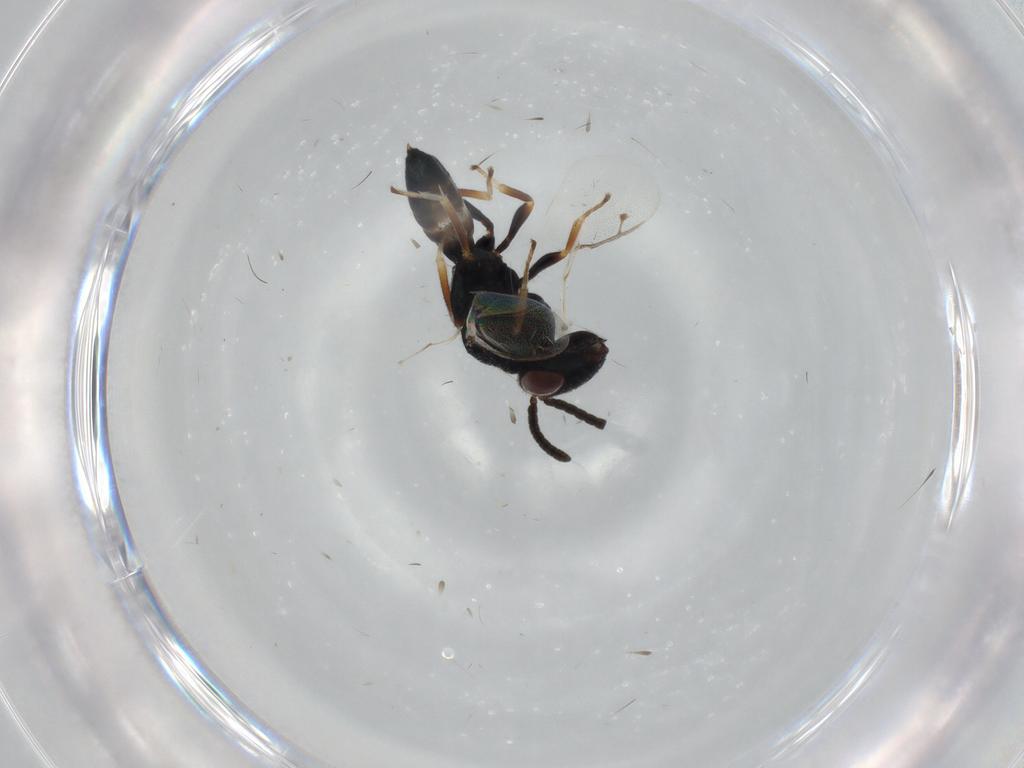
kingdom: Animalia
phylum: Arthropoda
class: Insecta
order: Hymenoptera
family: Pteromalidae
